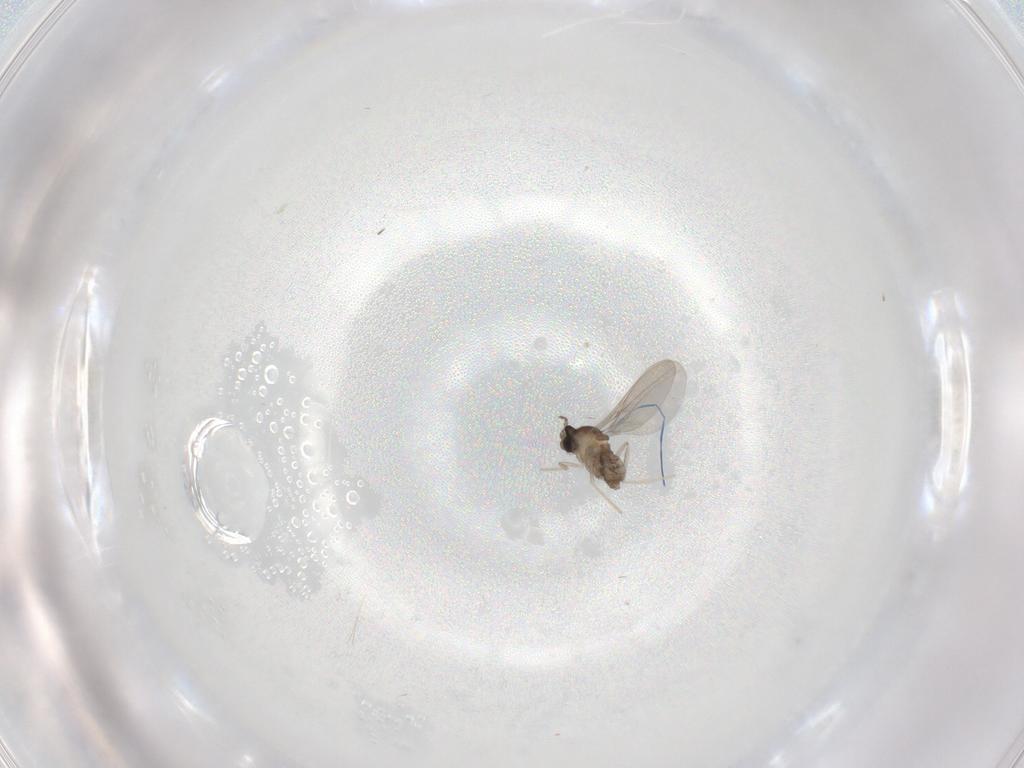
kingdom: Animalia
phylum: Arthropoda
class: Insecta
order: Diptera
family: Cecidomyiidae
